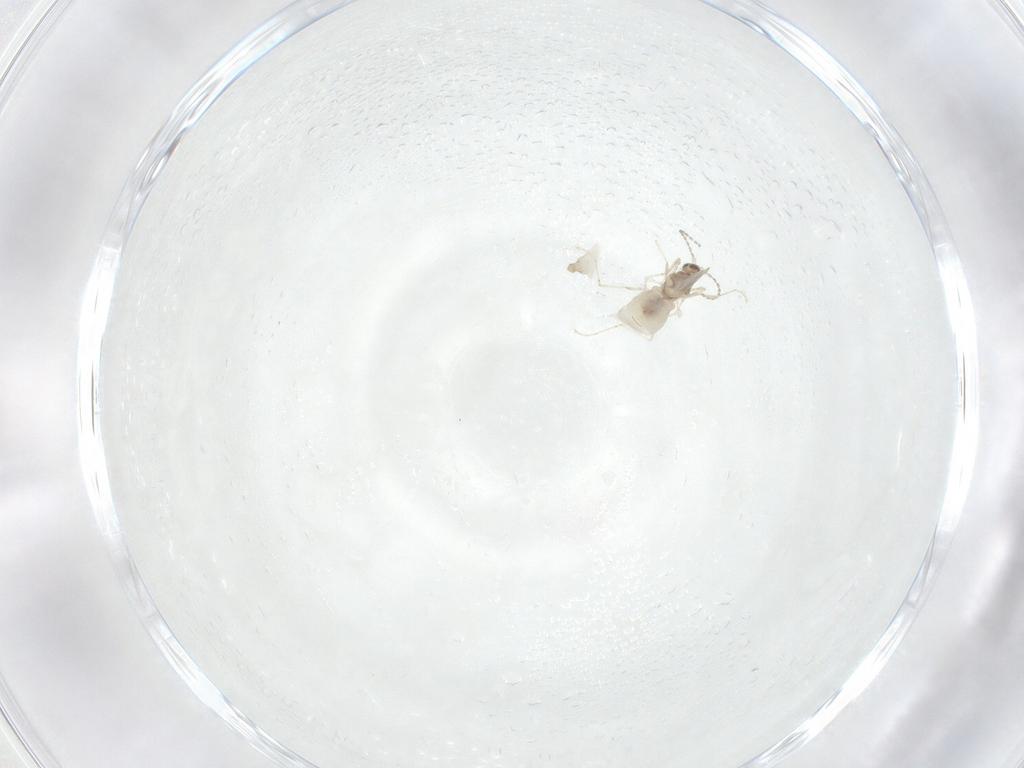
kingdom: Animalia
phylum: Arthropoda
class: Insecta
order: Diptera
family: Cecidomyiidae
